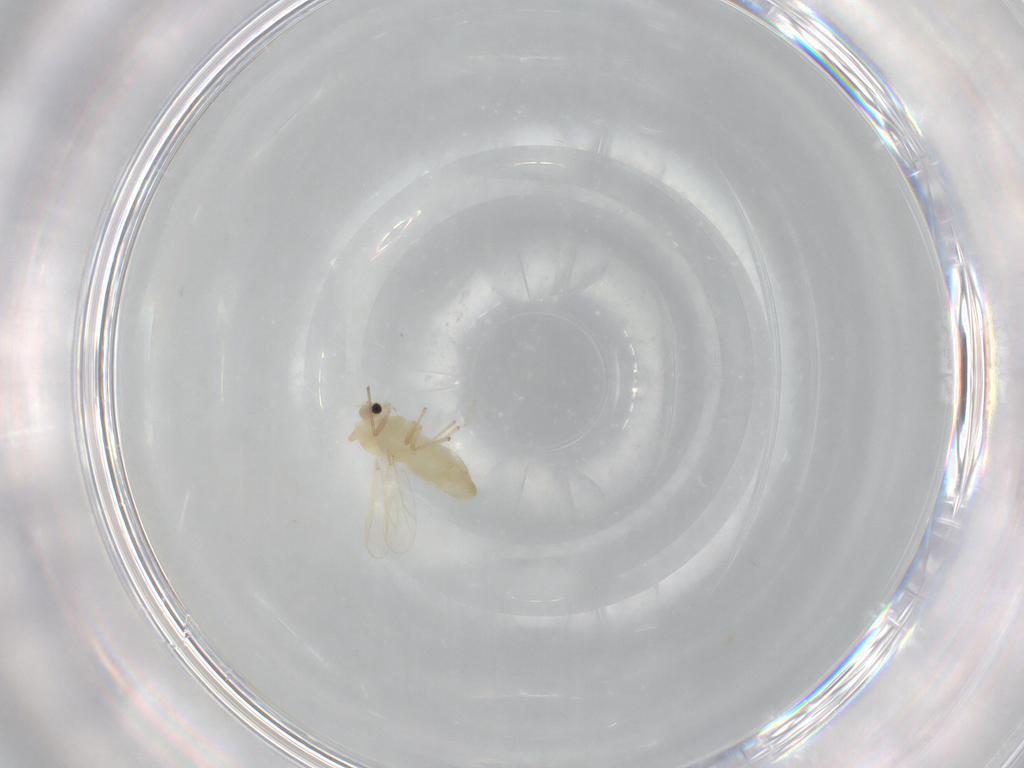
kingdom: Animalia
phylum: Arthropoda
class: Insecta
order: Diptera
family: Chironomidae
